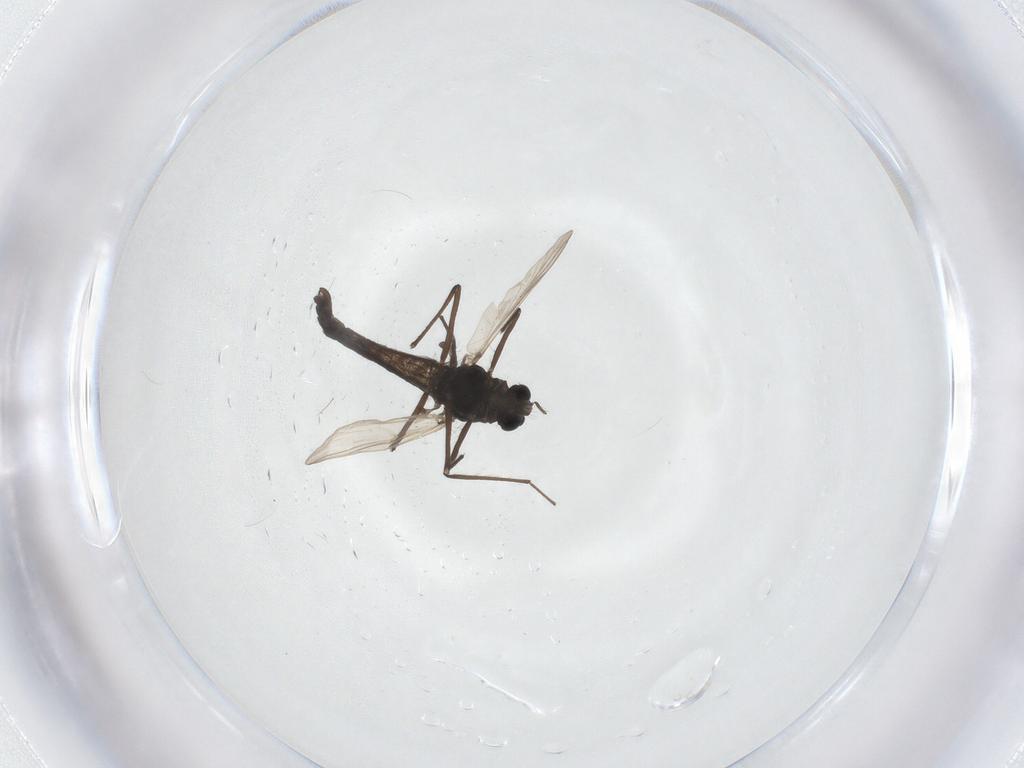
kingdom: Animalia
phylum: Arthropoda
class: Insecta
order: Diptera
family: Chironomidae
